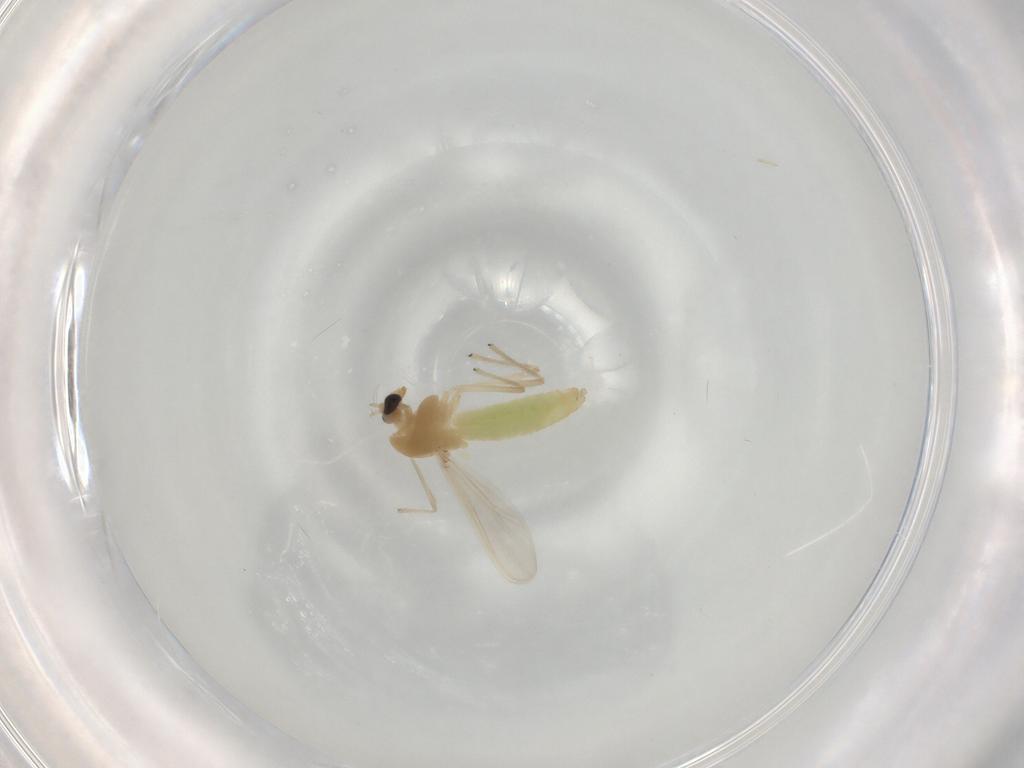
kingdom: Animalia
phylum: Arthropoda
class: Insecta
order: Diptera
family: Chironomidae
